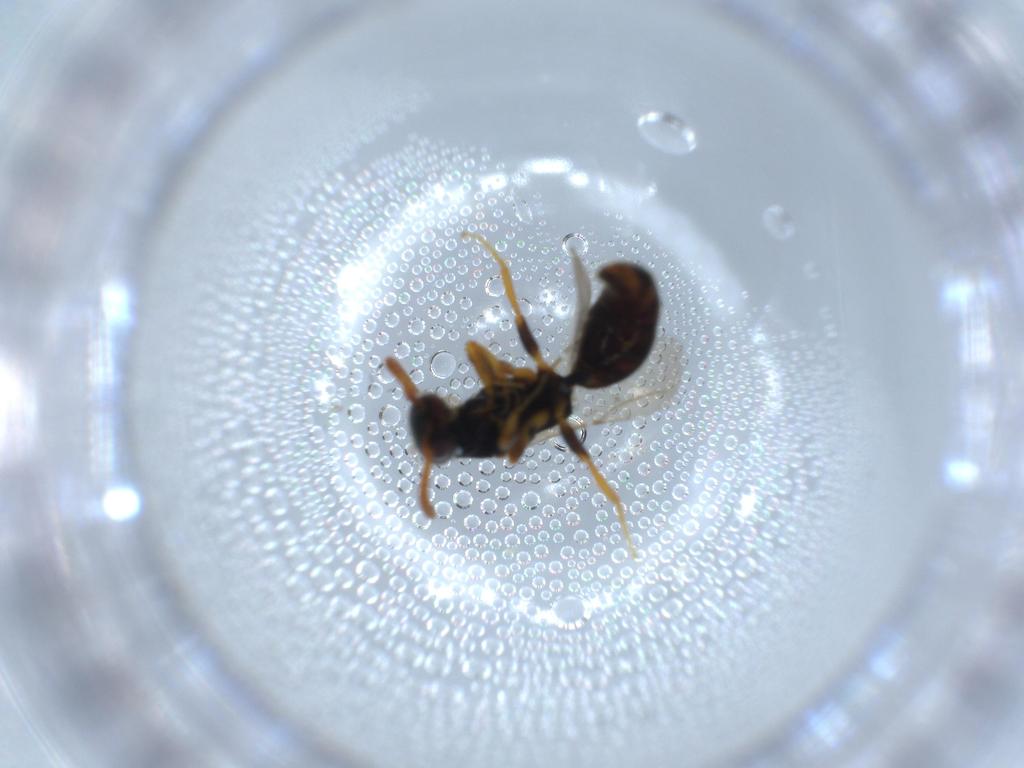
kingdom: Animalia
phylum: Arthropoda
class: Insecta
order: Hymenoptera
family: Bethylidae
